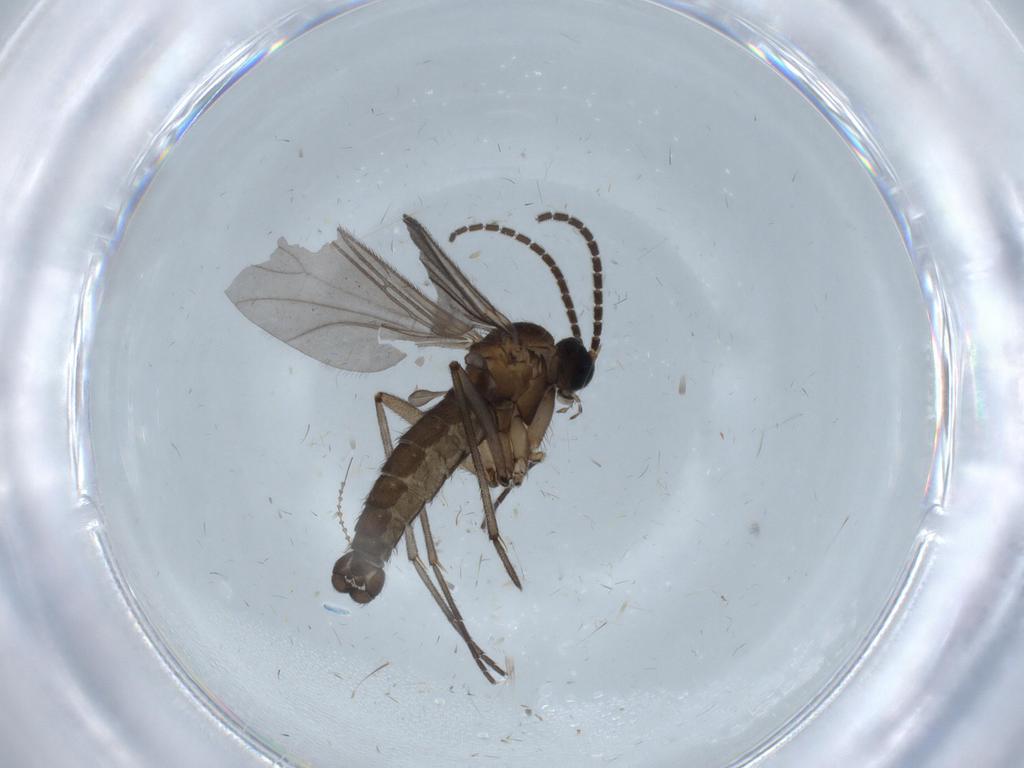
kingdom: Animalia
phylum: Arthropoda
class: Insecta
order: Diptera
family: Sciaridae
